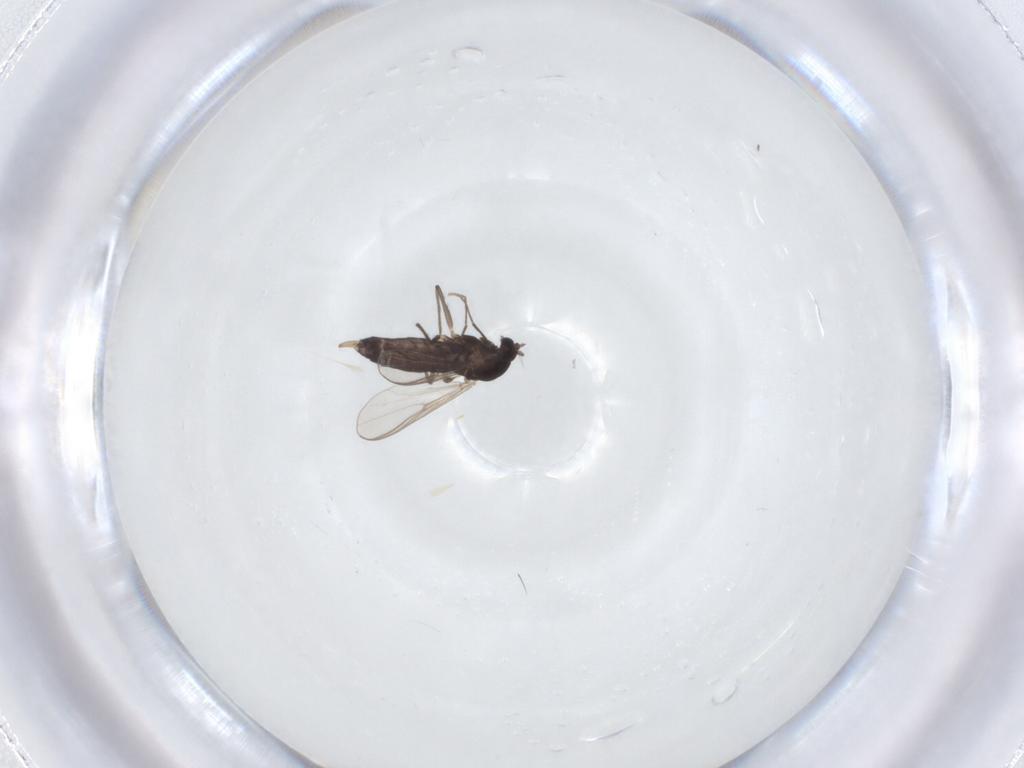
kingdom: Animalia
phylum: Arthropoda
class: Insecta
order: Diptera
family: Chironomidae
